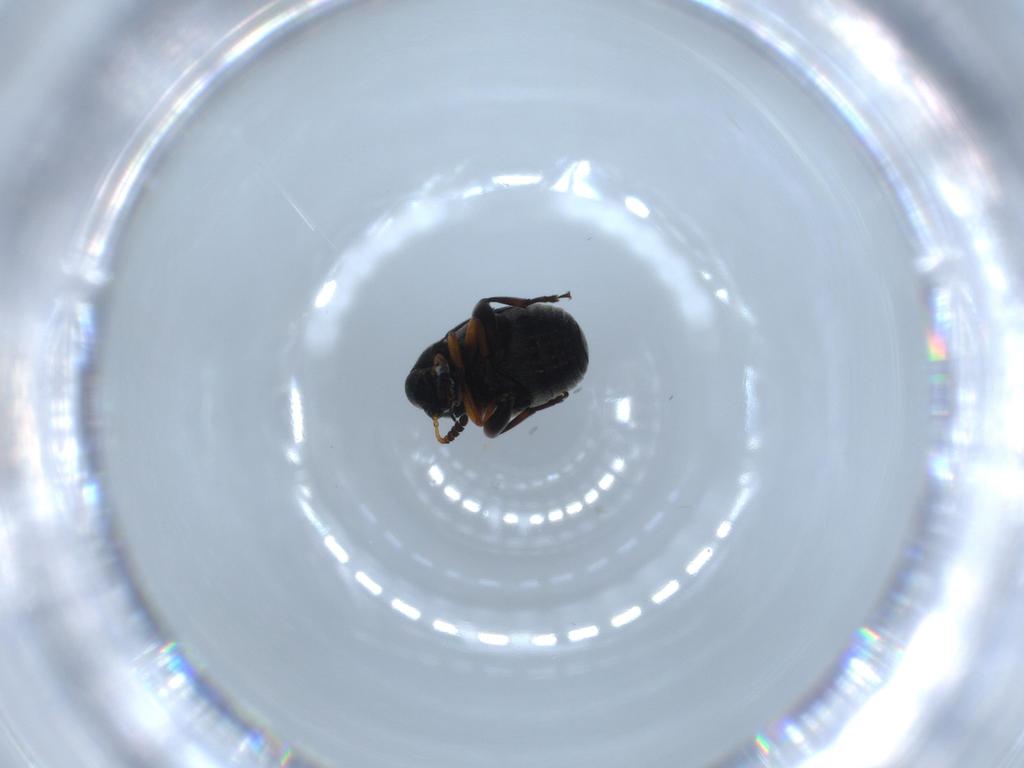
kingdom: Animalia
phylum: Arthropoda
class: Insecta
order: Coleoptera
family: Chrysomelidae
